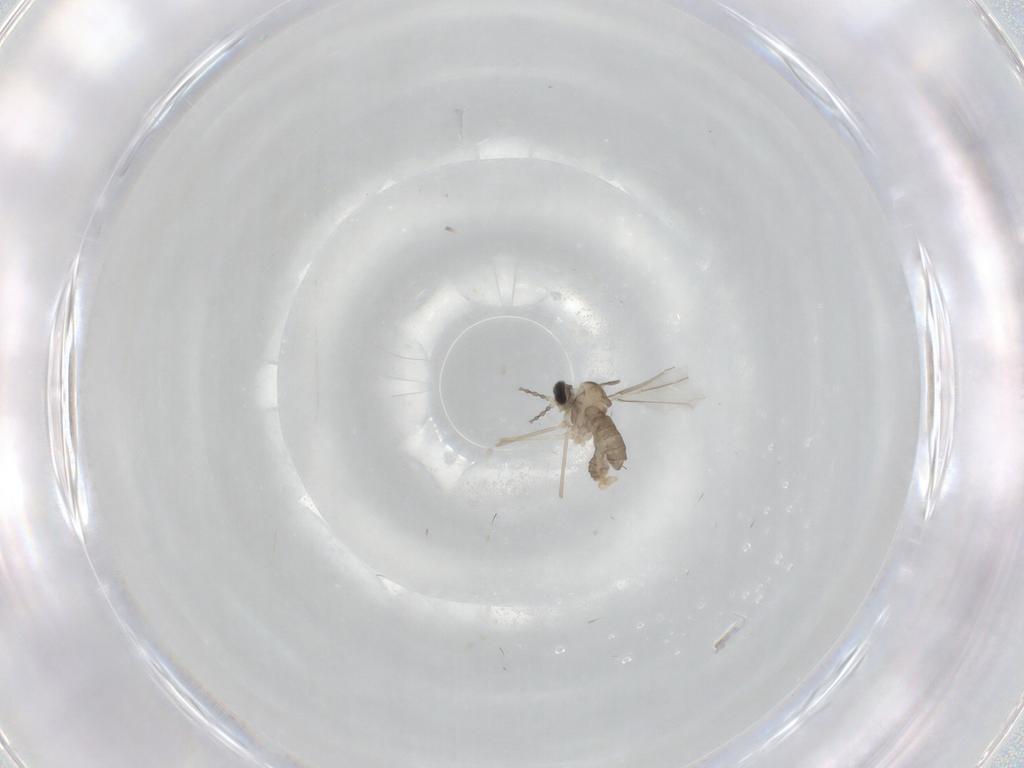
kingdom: Animalia
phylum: Arthropoda
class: Insecta
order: Diptera
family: Cecidomyiidae
